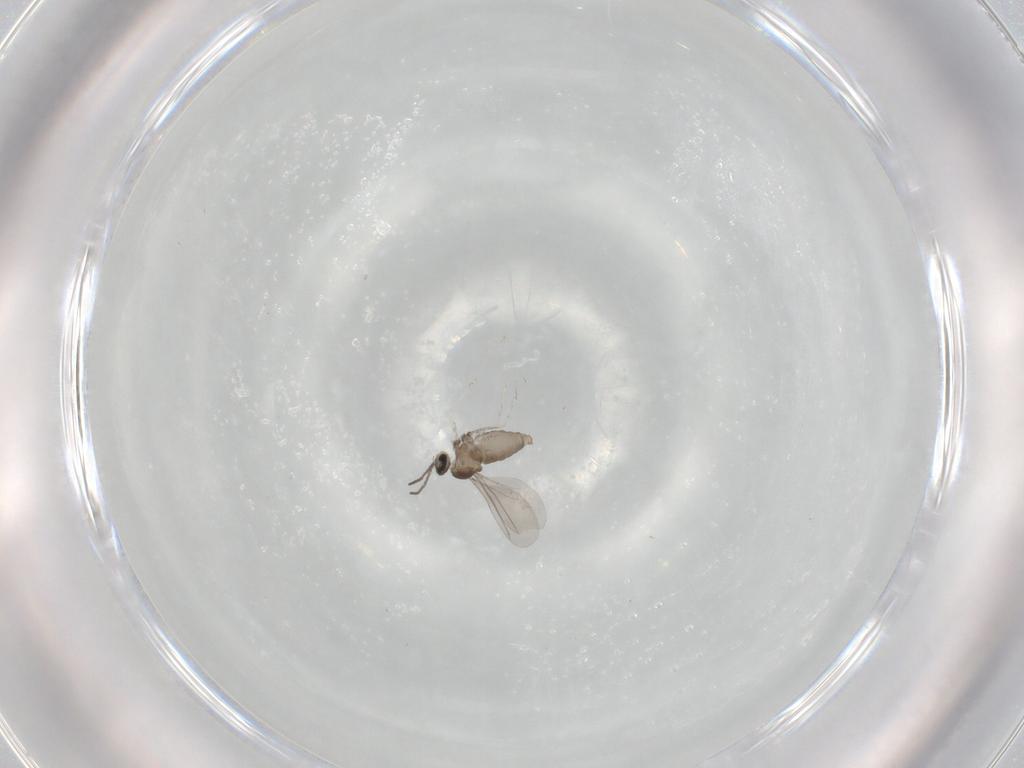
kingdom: Animalia
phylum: Arthropoda
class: Insecta
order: Diptera
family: Cecidomyiidae
